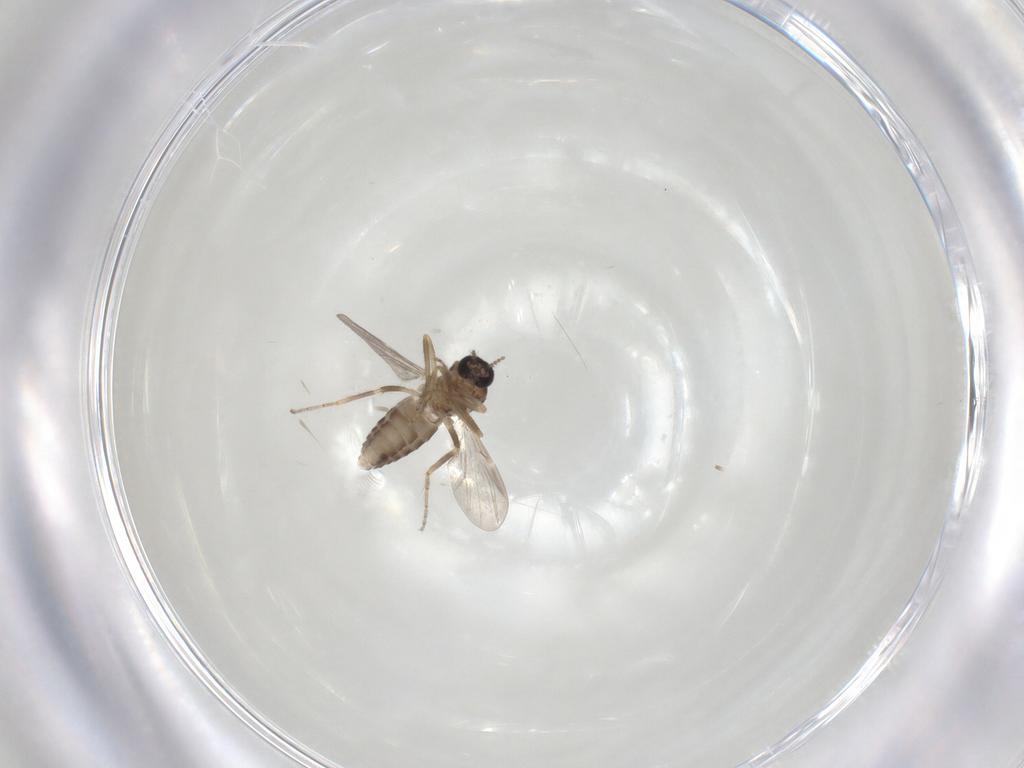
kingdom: Animalia
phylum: Arthropoda
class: Insecta
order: Diptera
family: Ceratopogonidae
